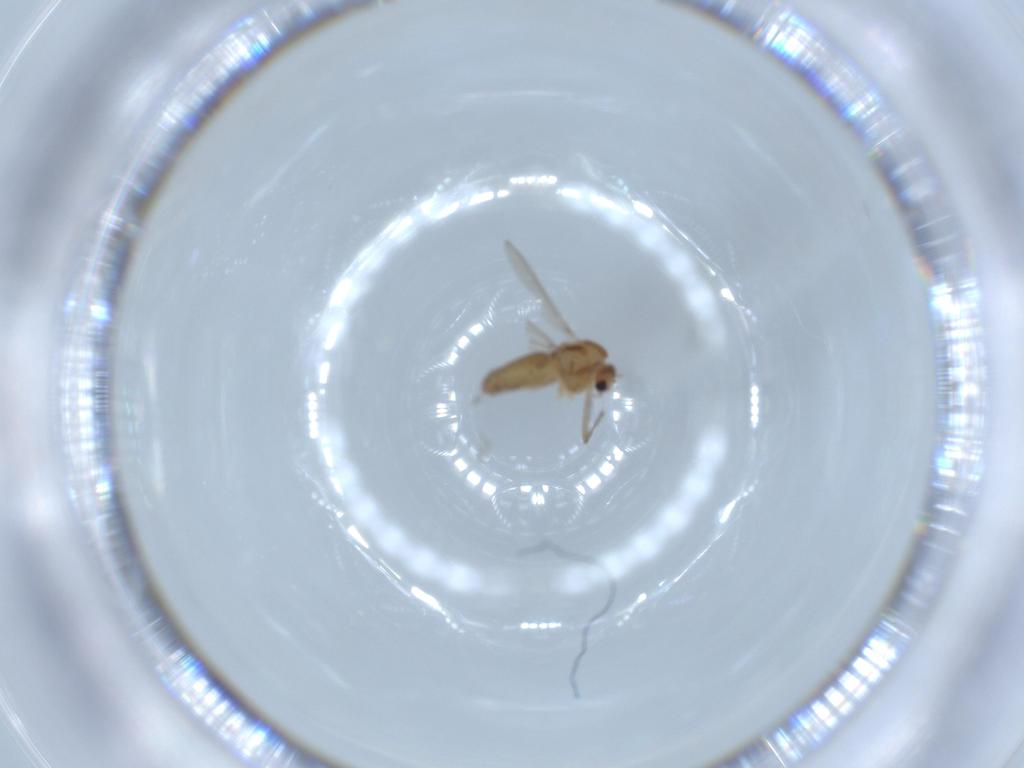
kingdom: Animalia
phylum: Arthropoda
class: Insecta
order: Diptera
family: Chironomidae
